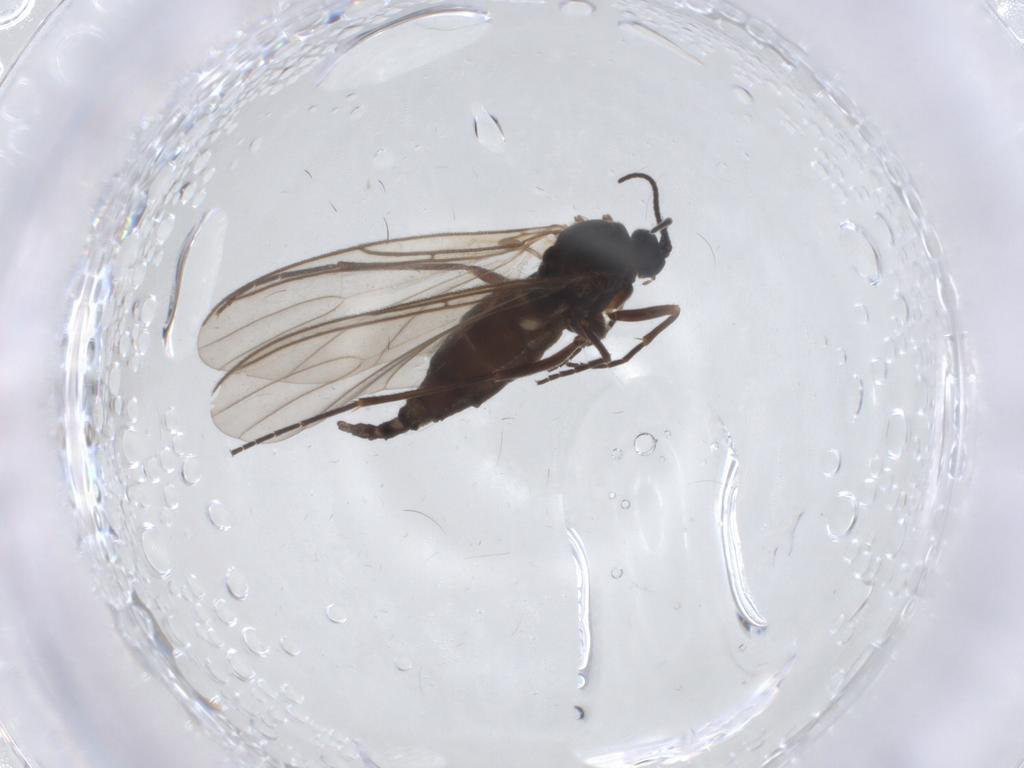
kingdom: Animalia
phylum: Arthropoda
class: Insecta
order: Diptera
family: Sciaridae
